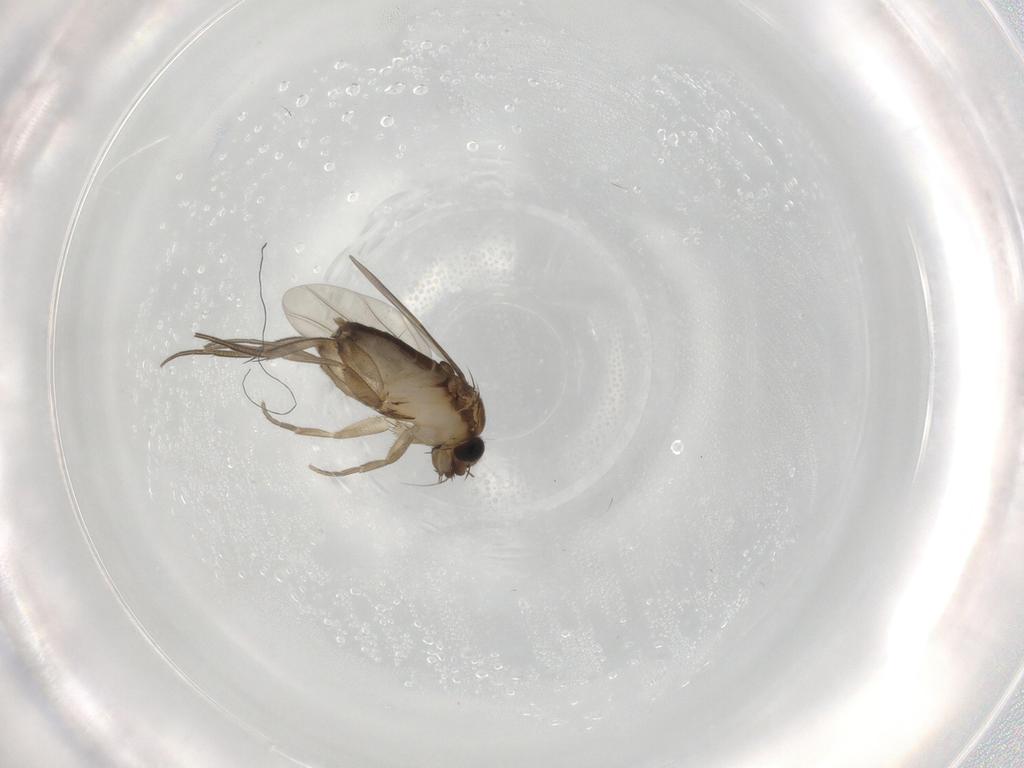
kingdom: Animalia
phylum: Arthropoda
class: Insecta
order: Diptera
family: Phoridae
